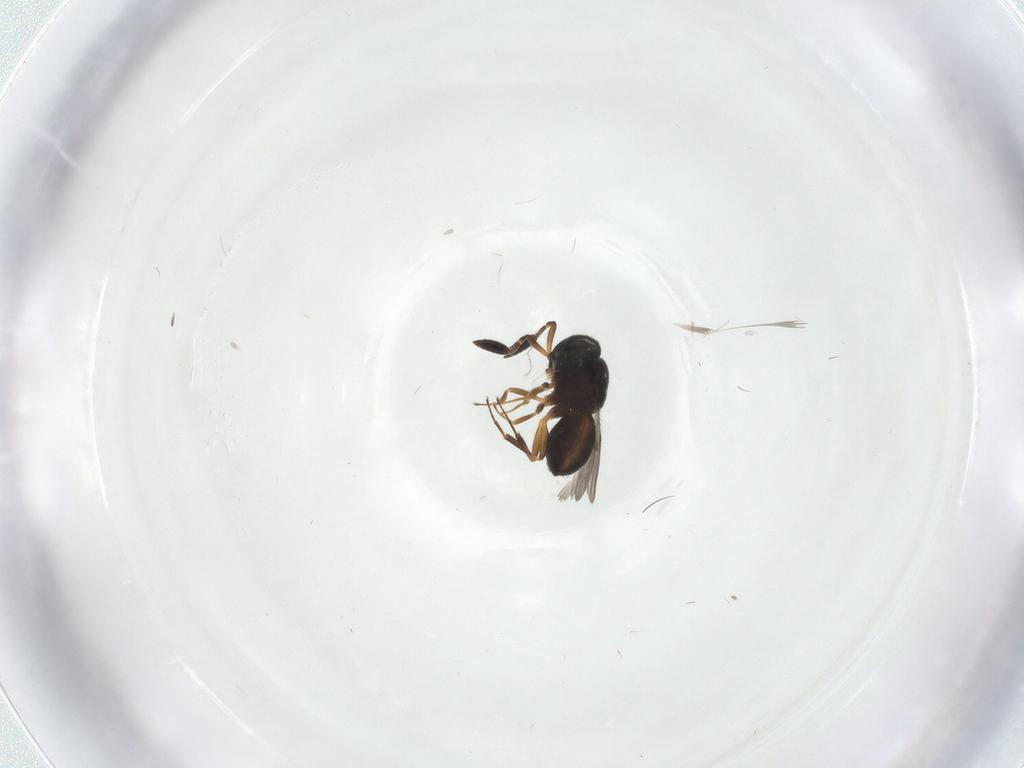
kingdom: Animalia
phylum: Arthropoda
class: Insecta
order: Hymenoptera
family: Scelionidae
